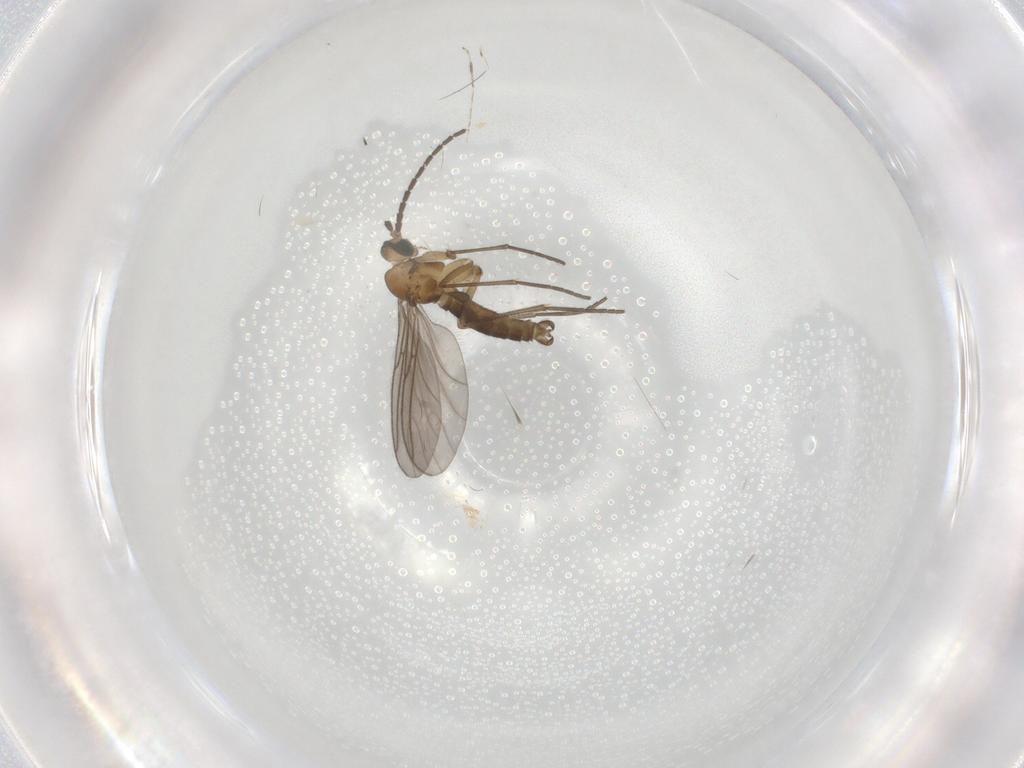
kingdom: Animalia
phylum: Arthropoda
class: Insecta
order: Diptera
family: Sciaridae
